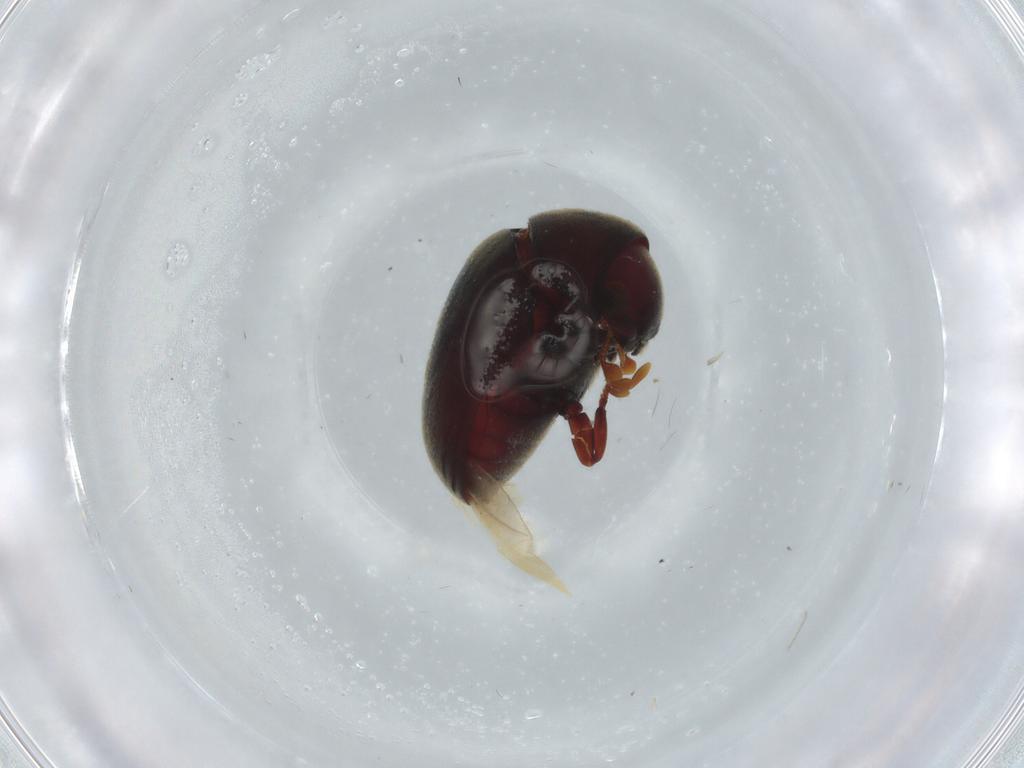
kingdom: Animalia
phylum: Arthropoda
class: Insecta
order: Coleoptera
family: Ptinidae
